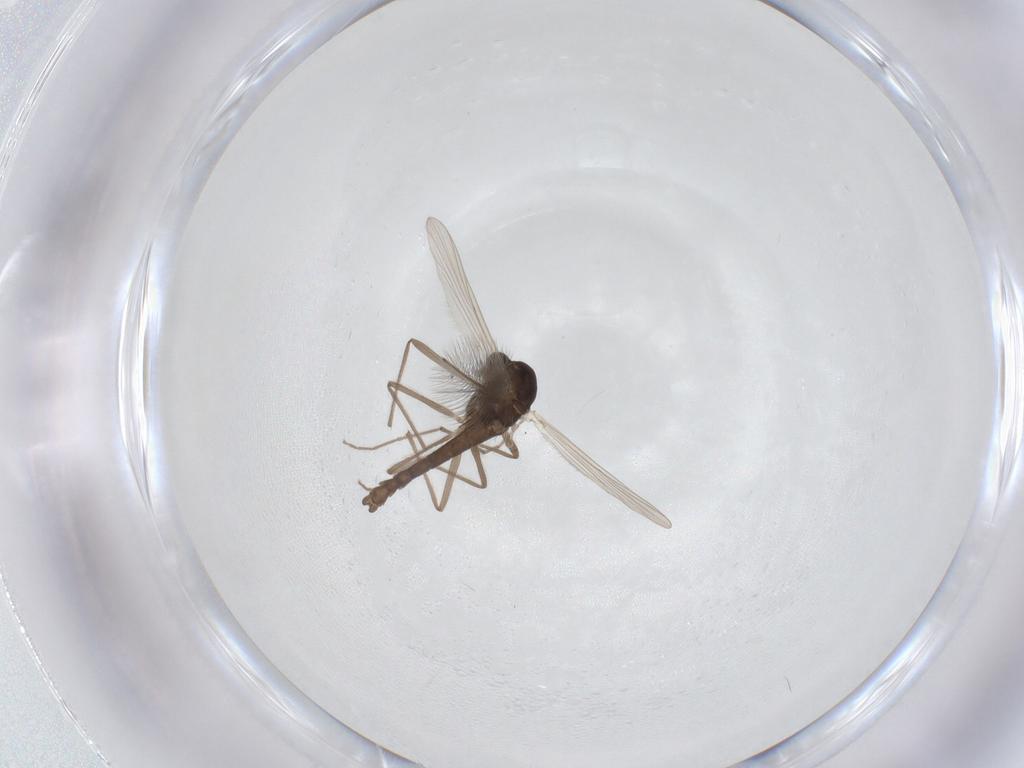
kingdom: Animalia
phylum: Arthropoda
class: Insecta
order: Diptera
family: Chironomidae
